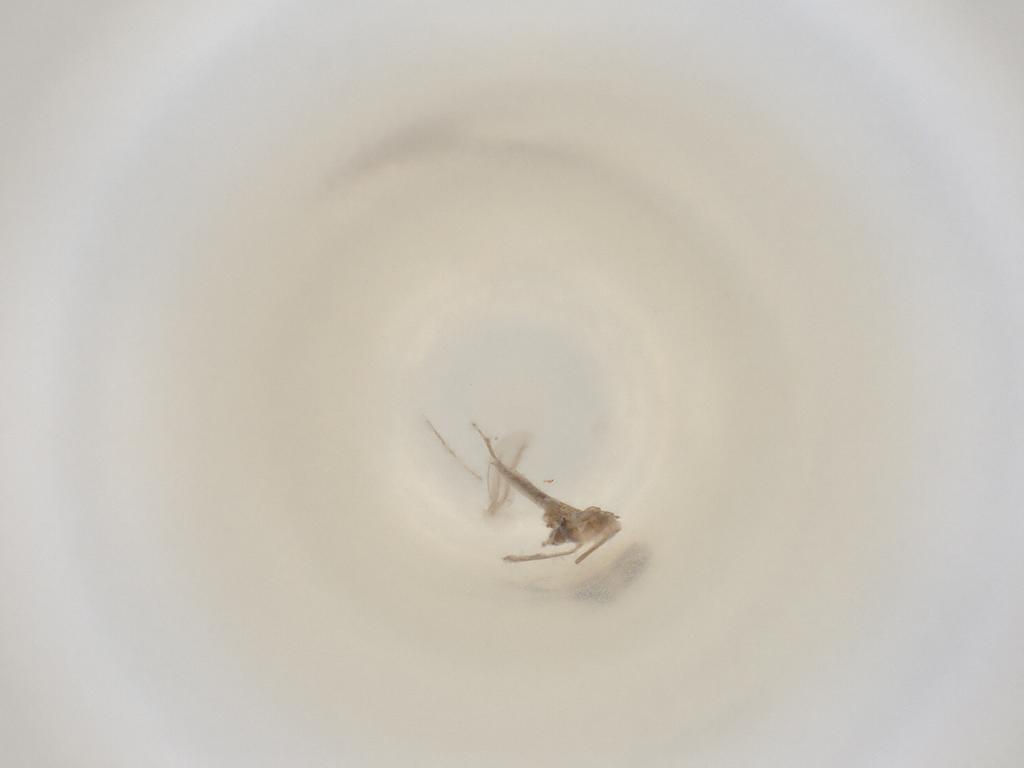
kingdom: Animalia
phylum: Arthropoda
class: Insecta
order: Diptera
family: Cecidomyiidae
